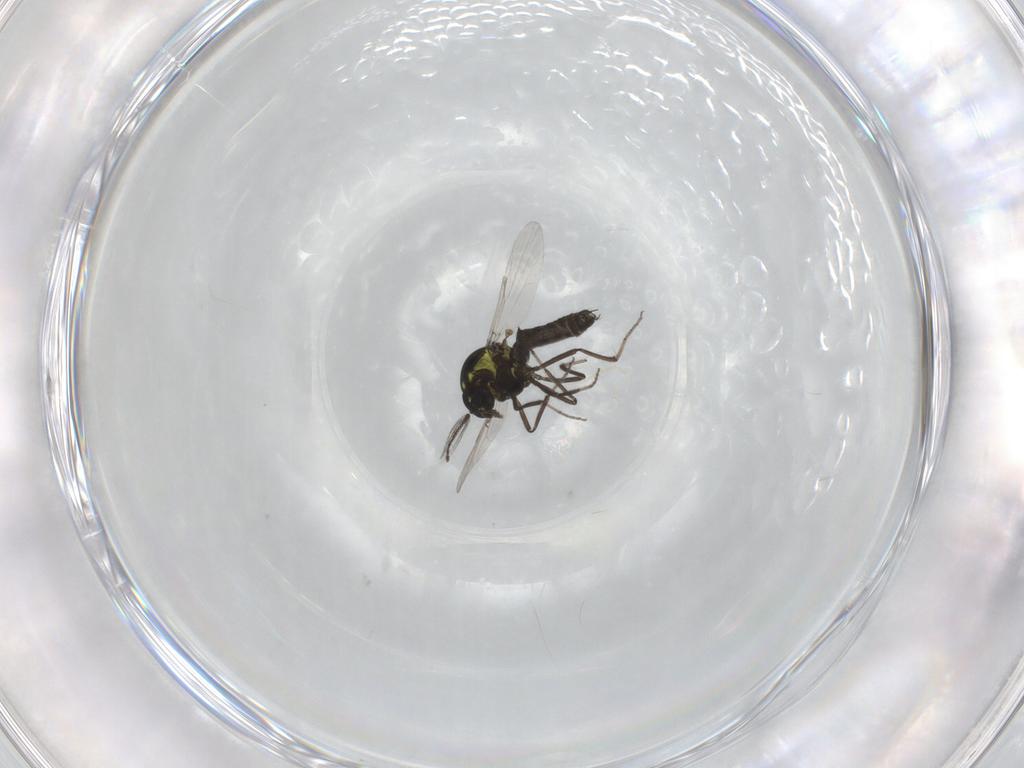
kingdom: Animalia
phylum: Arthropoda
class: Insecta
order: Diptera
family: Ceratopogonidae
